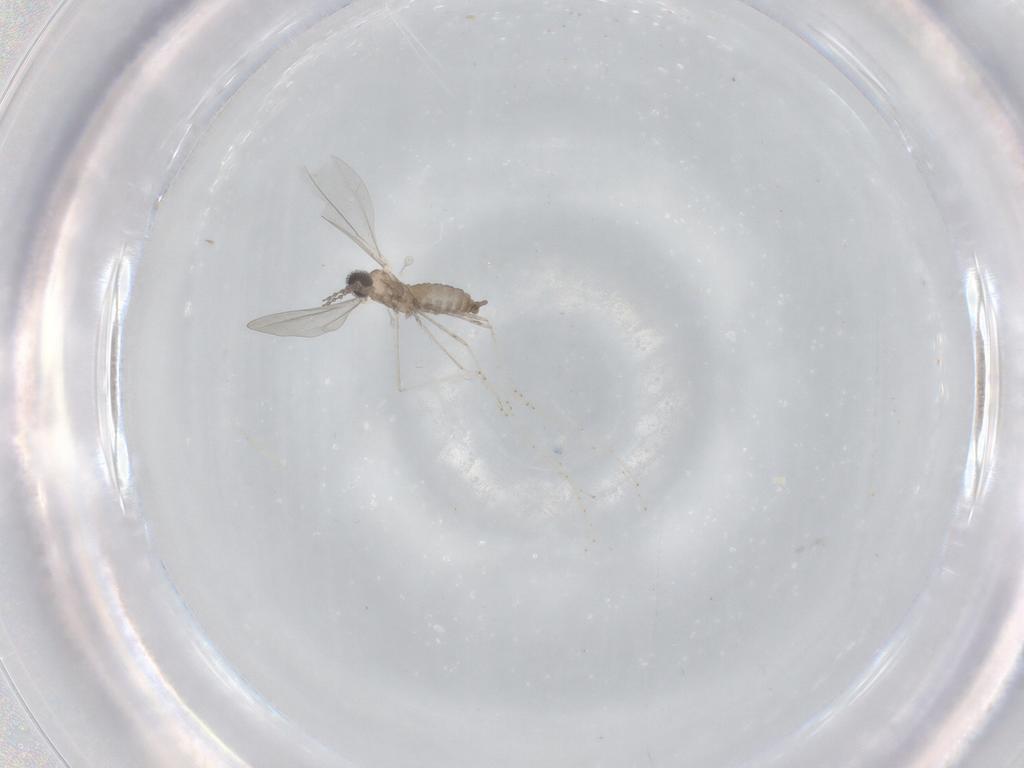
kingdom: Animalia
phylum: Arthropoda
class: Insecta
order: Diptera
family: Cecidomyiidae
